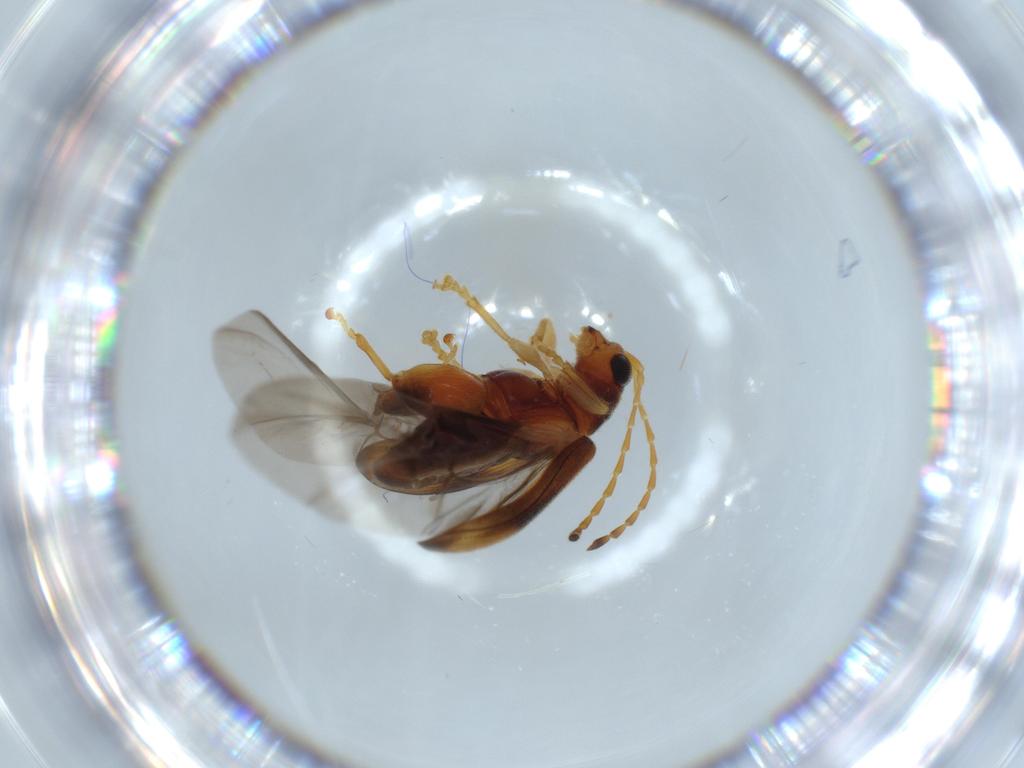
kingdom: Animalia
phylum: Arthropoda
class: Insecta
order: Coleoptera
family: Chrysomelidae
